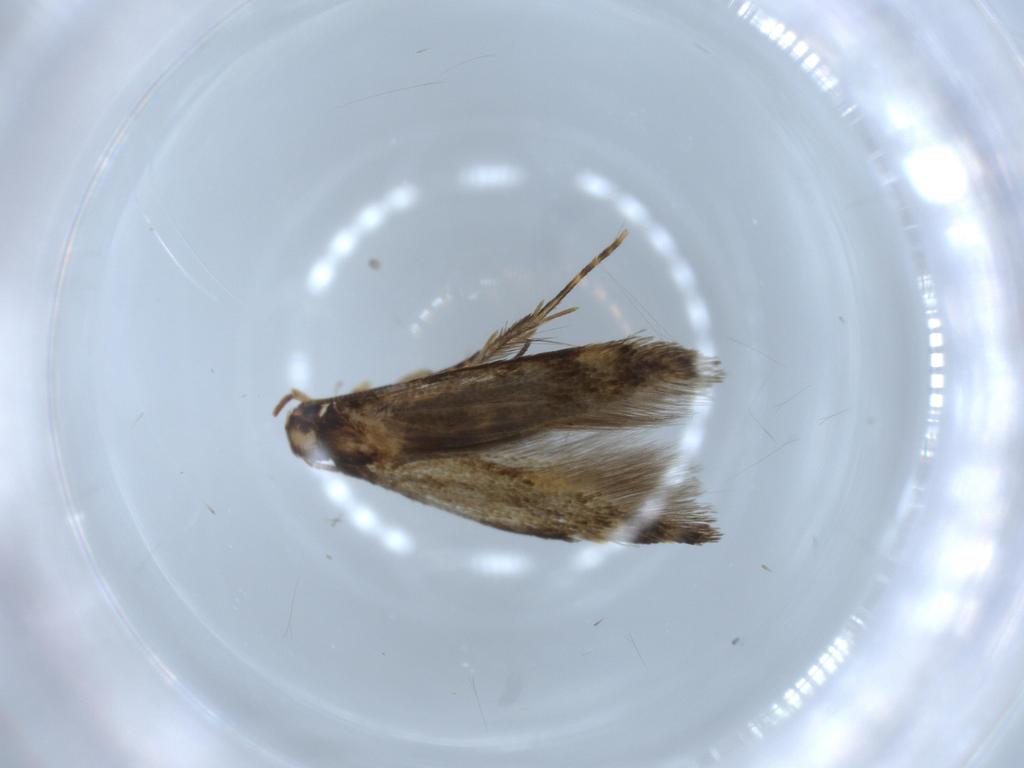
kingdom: Animalia
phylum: Arthropoda
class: Insecta
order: Lepidoptera
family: Tineidae
